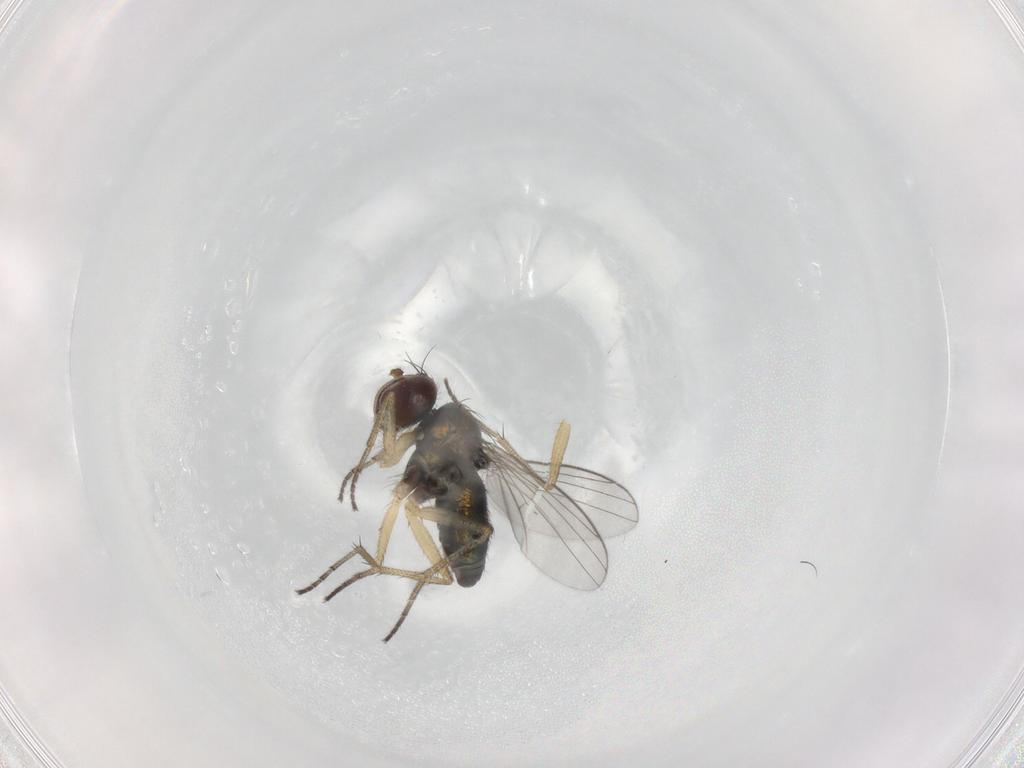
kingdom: Animalia
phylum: Arthropoda
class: Insecta
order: Diptera
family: Dolichopodidae
